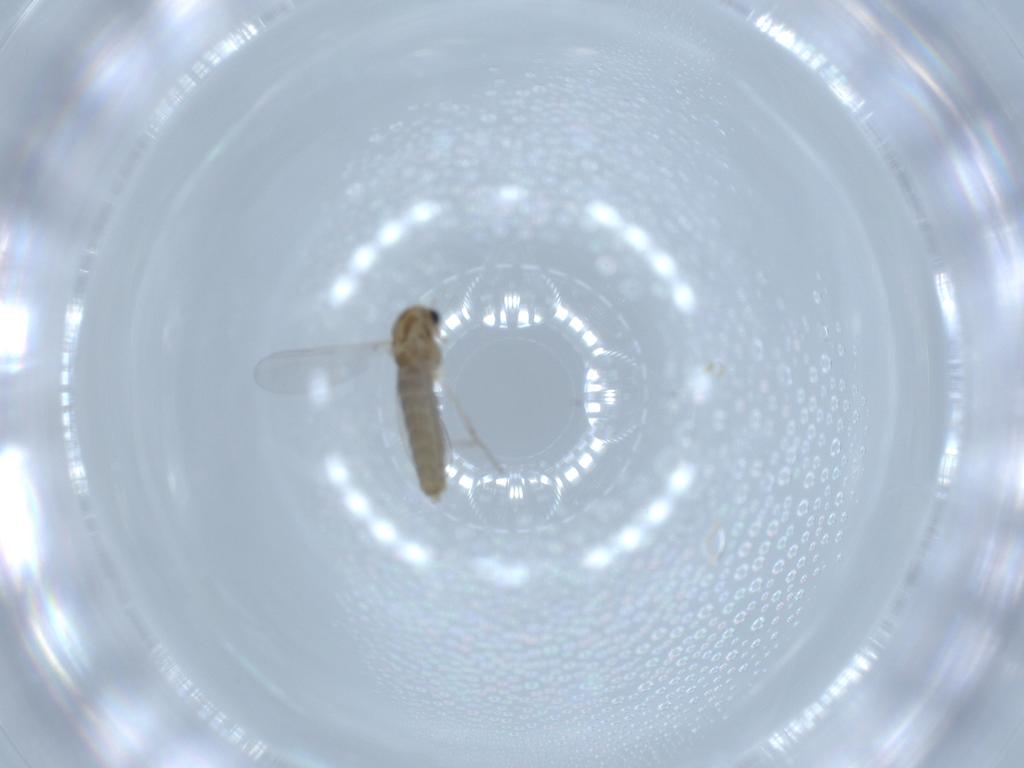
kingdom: Animalia
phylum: Arthropoda
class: Insecta
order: Diptera
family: Chironomidae
